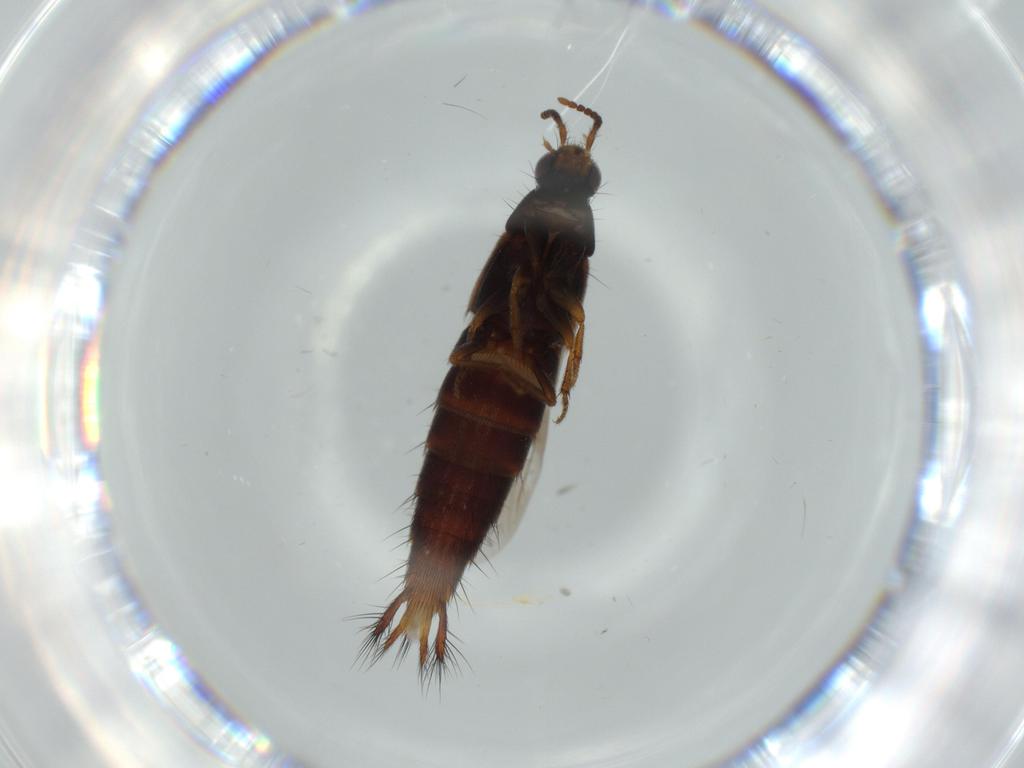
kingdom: Animalia
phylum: Arthropoda
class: Insecta
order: Coleoptera
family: Staphylinidae
